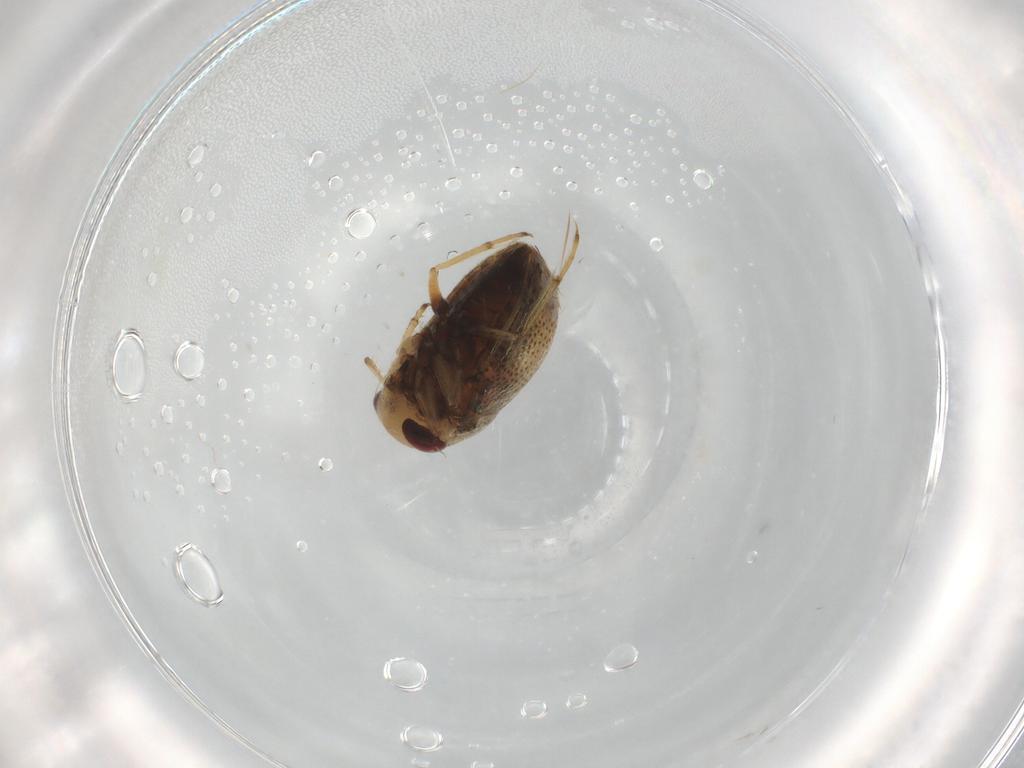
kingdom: Animalia
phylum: Arthropoda
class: Insecta
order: Hemiptera
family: Pleidae
